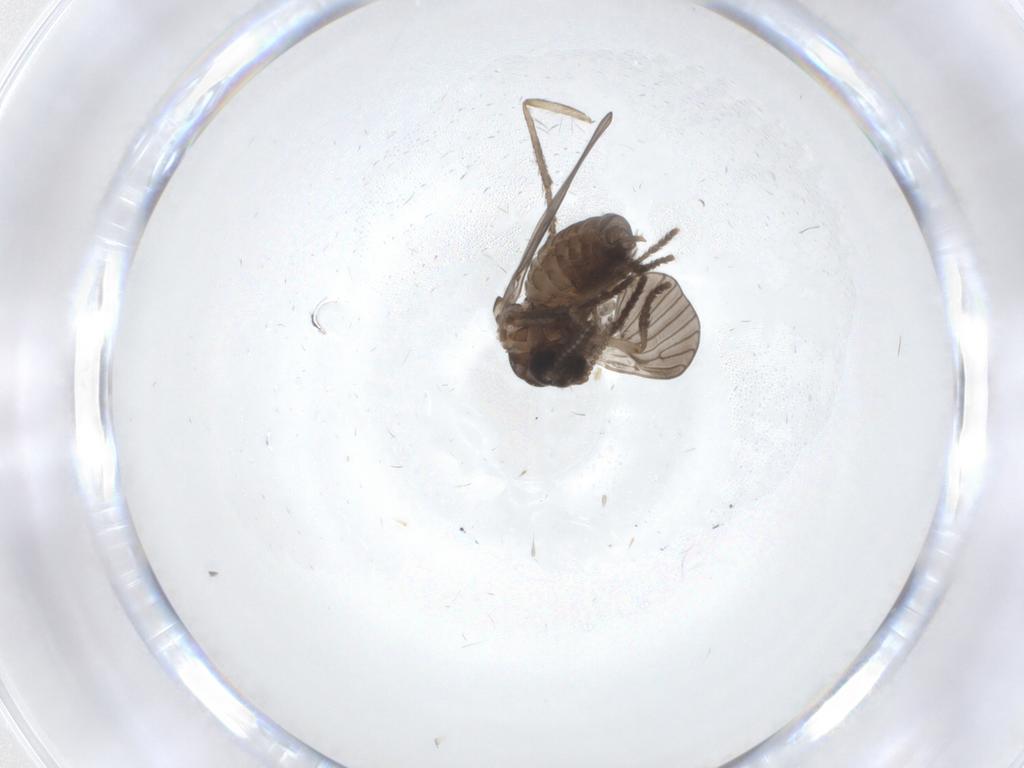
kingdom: Animalia
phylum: Arthropoda
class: Insecta
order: Diptera
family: Psychodidae
